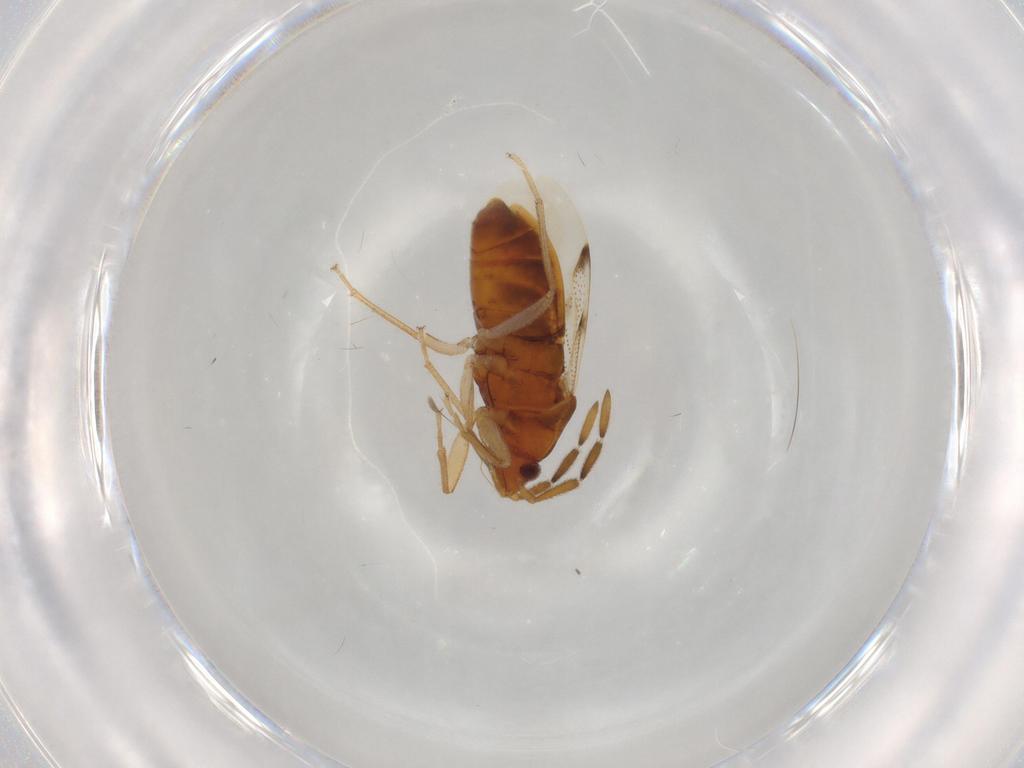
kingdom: Animalia
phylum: Arthropoda
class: Insecta
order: Hemiptera
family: Rhyparochromidae
